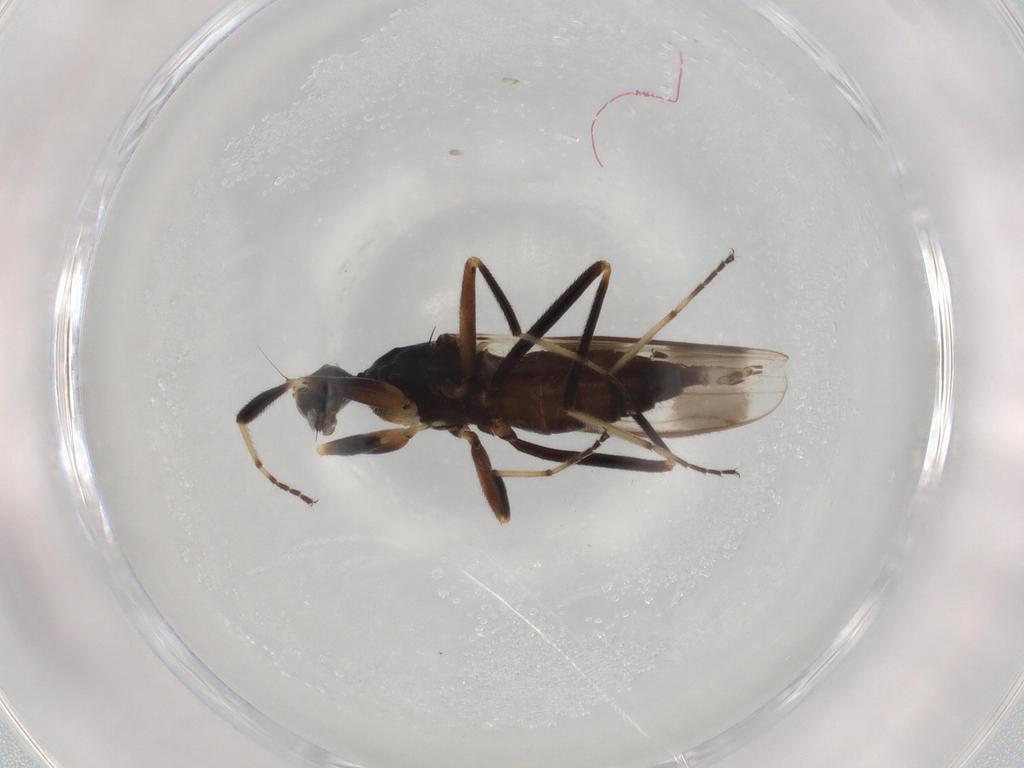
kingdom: Animalia
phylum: Arthropoda
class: Insecta
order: Diptera
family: Hybotidae
